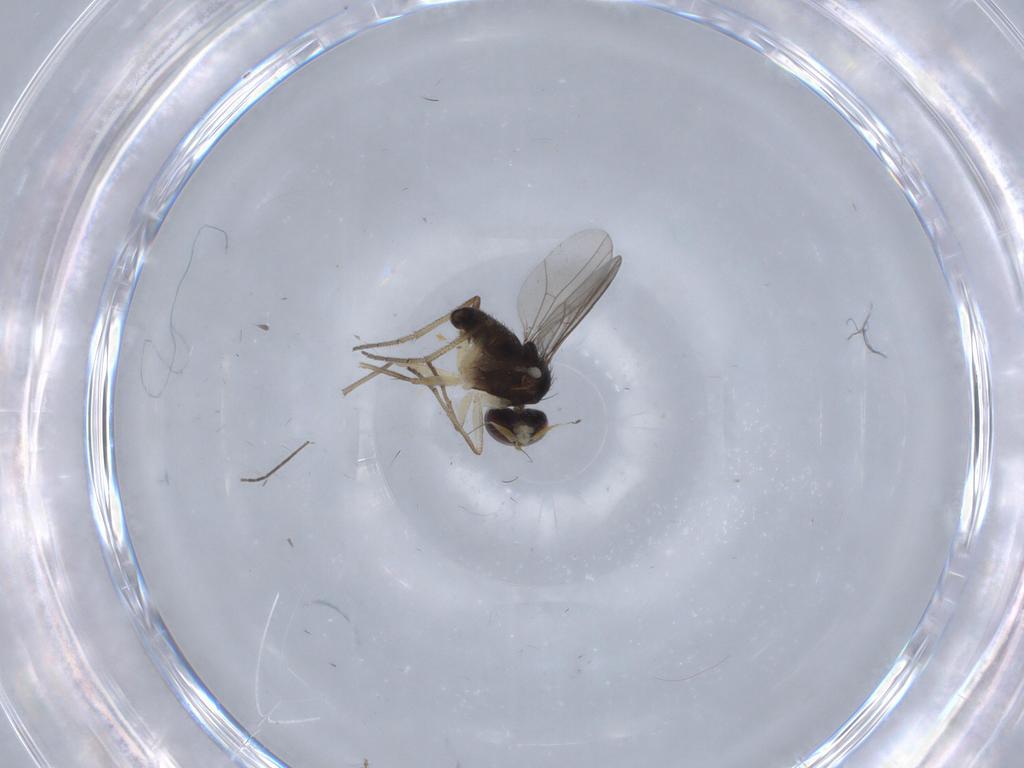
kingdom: Animalia
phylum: Arthropoda
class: Insecta
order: Diptera
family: Dolichopodidae
